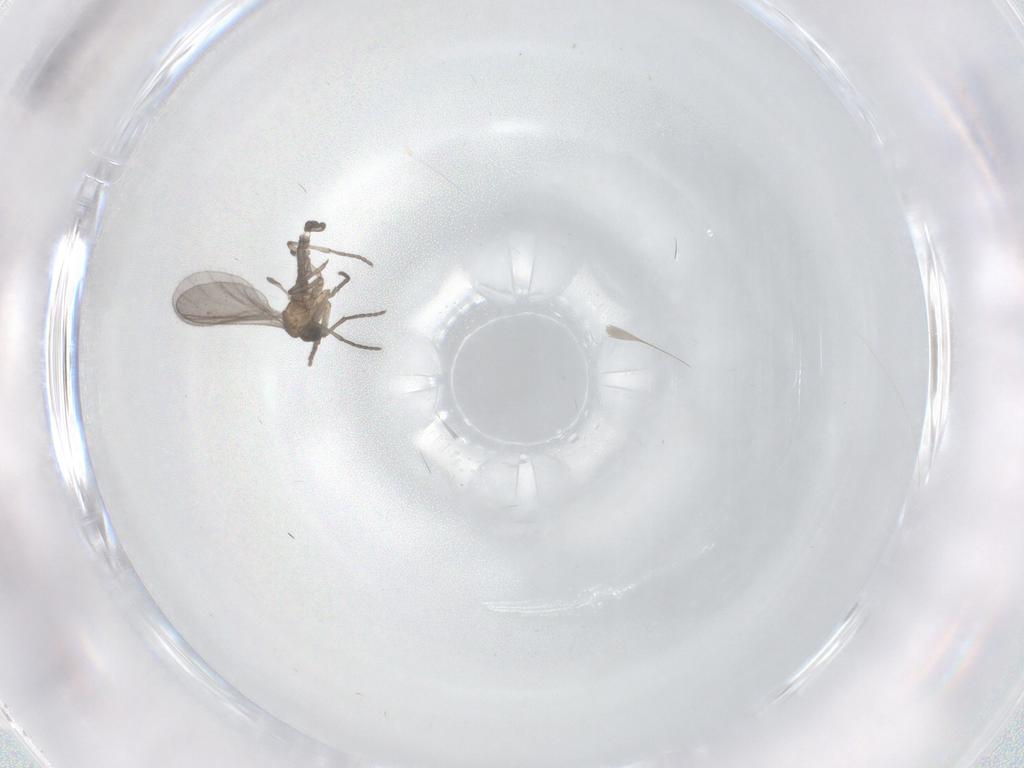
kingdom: Animalia
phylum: Arthropoda
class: Insecta
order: Diptera
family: Sciaridae
